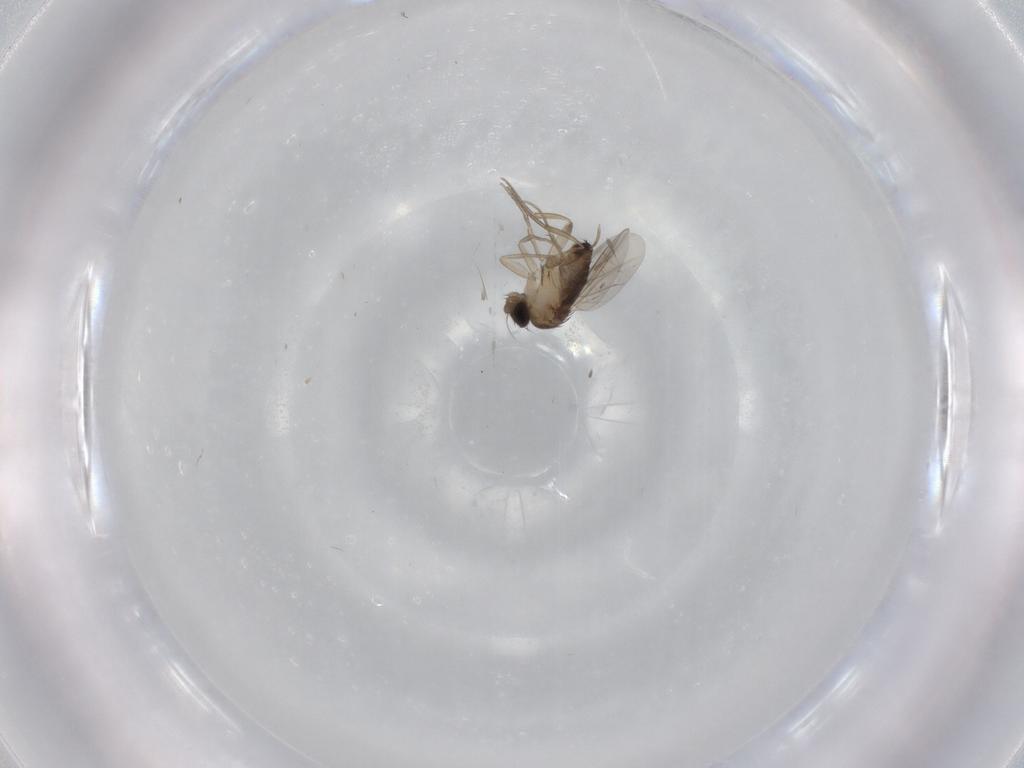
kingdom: Animalia
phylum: Arthropoda
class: Insecta
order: Diptera
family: Cecidomyiidae
